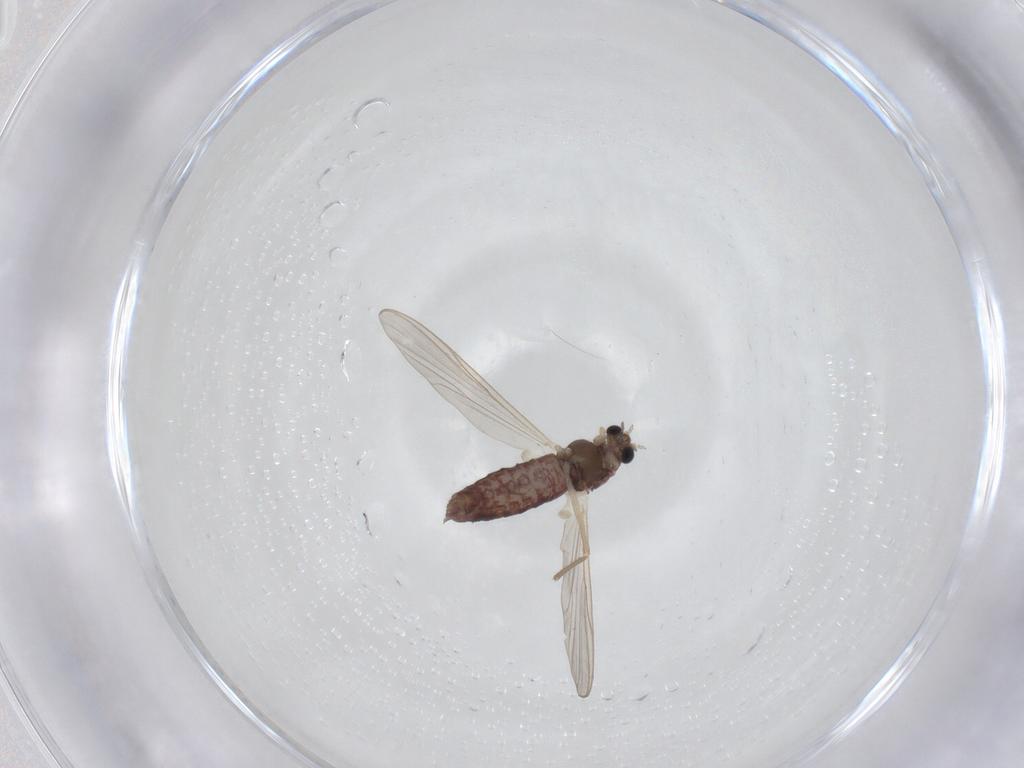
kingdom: Animalia
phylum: Arthropoda
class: Insecta
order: Diptera
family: Chironomidae
